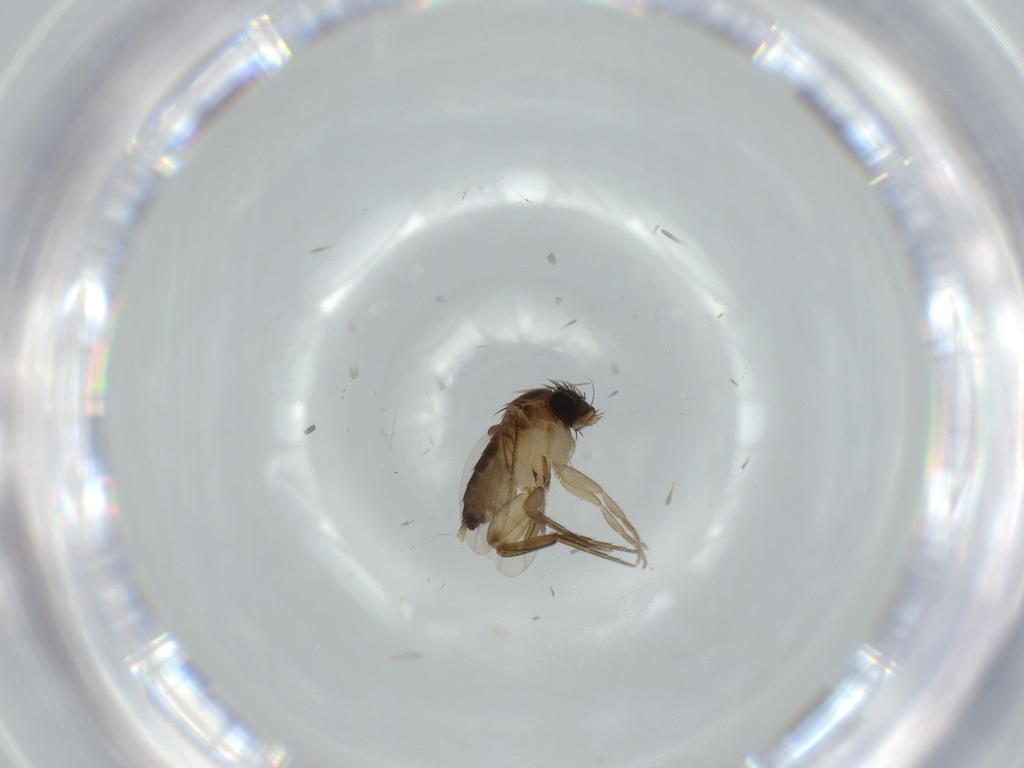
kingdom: Animalia
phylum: Arthropoda
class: Insecta
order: Diptera
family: Phoridae
